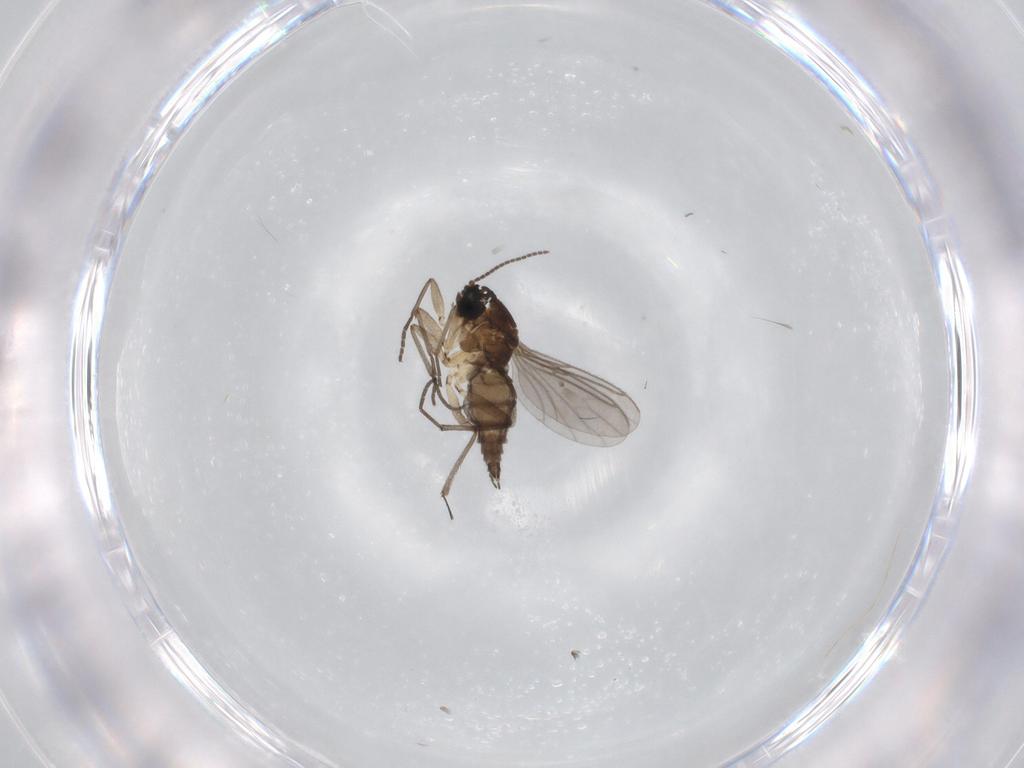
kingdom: Animalia
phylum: Arthropoda
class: Insecta
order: Diptera
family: Sciaridae
